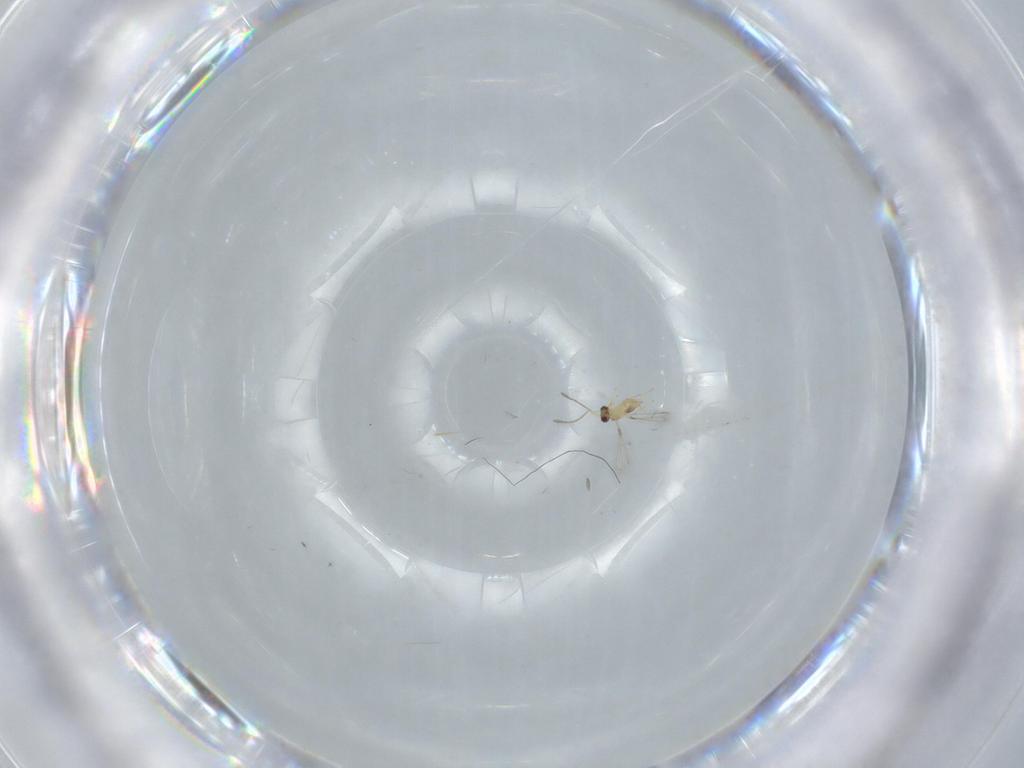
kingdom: Animalia
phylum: Arthropoda
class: Insecta
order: Hymenoptera
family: Mymaridae
